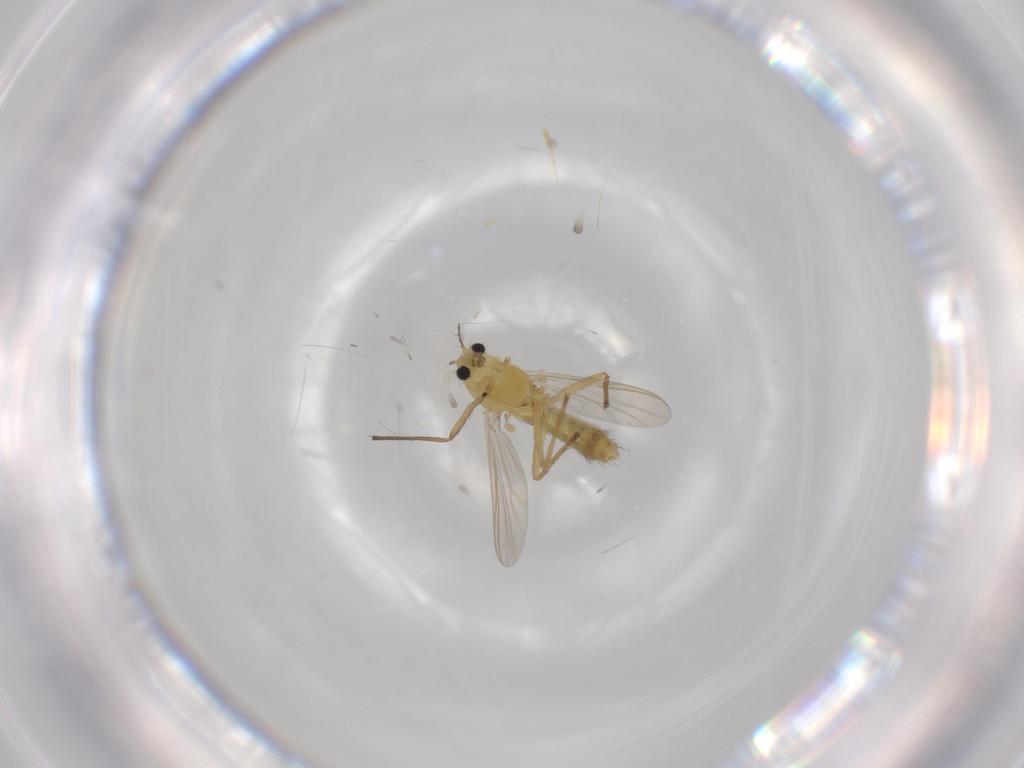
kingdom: Animalia
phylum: Arthropoda
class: Insecta
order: Diptera
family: Chironomidae
